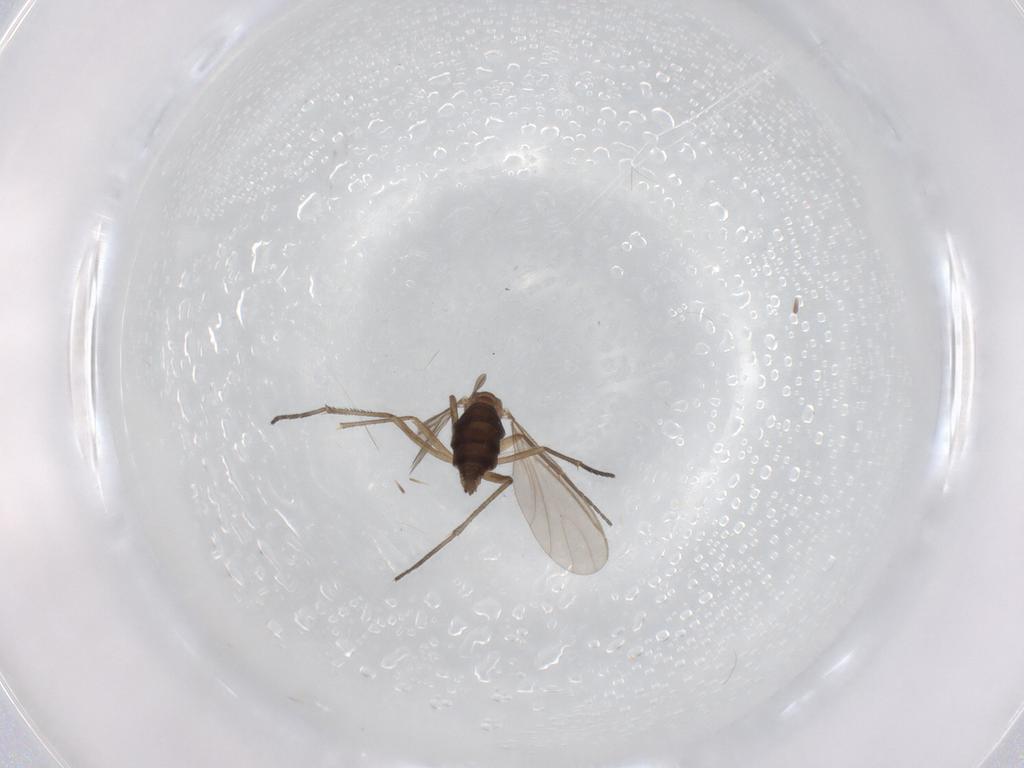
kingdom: Animalia
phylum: Arthropoda
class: Insecta
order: Diptera
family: Sciaridae
